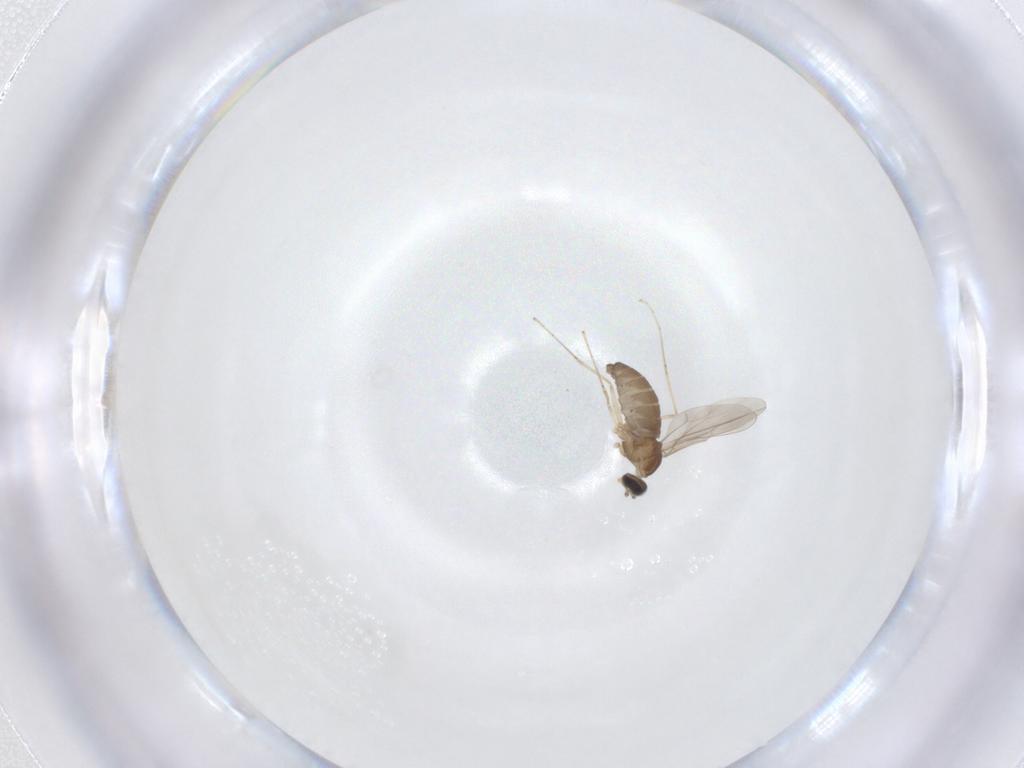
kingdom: Animalia
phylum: Arthropoda
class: Insecta
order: Diptera
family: Cecidomyiidae
